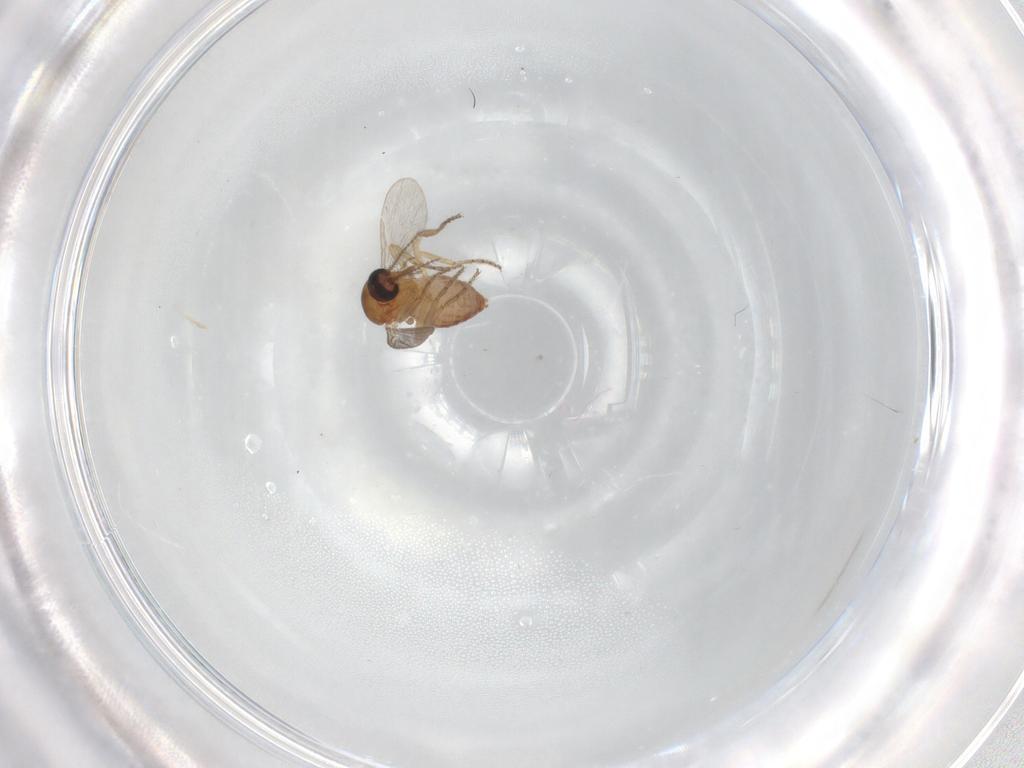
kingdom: Animalia
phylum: Arthropoda
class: Insecta
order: Diptera
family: Ceratopogonidae
